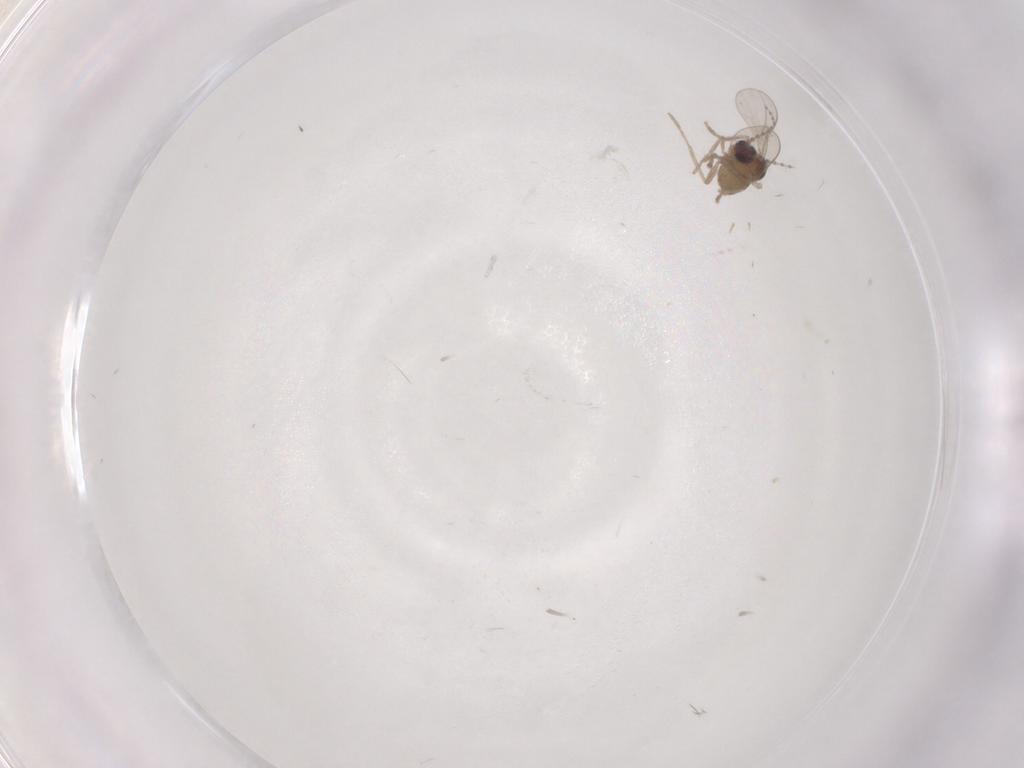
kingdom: Animalia
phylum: Arthropoda
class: Insecta
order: Diptera
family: Cecidomyiidae
